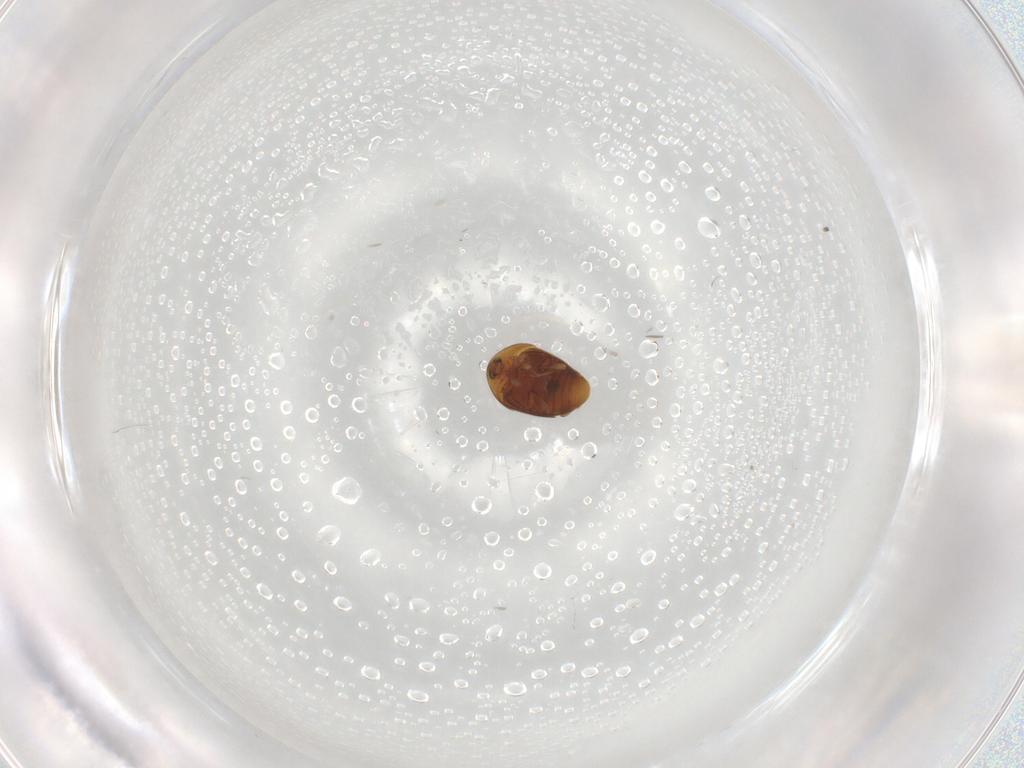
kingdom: Animalia
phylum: Arthropoda
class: Insecta
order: Coleoptera
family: Corylophidae
